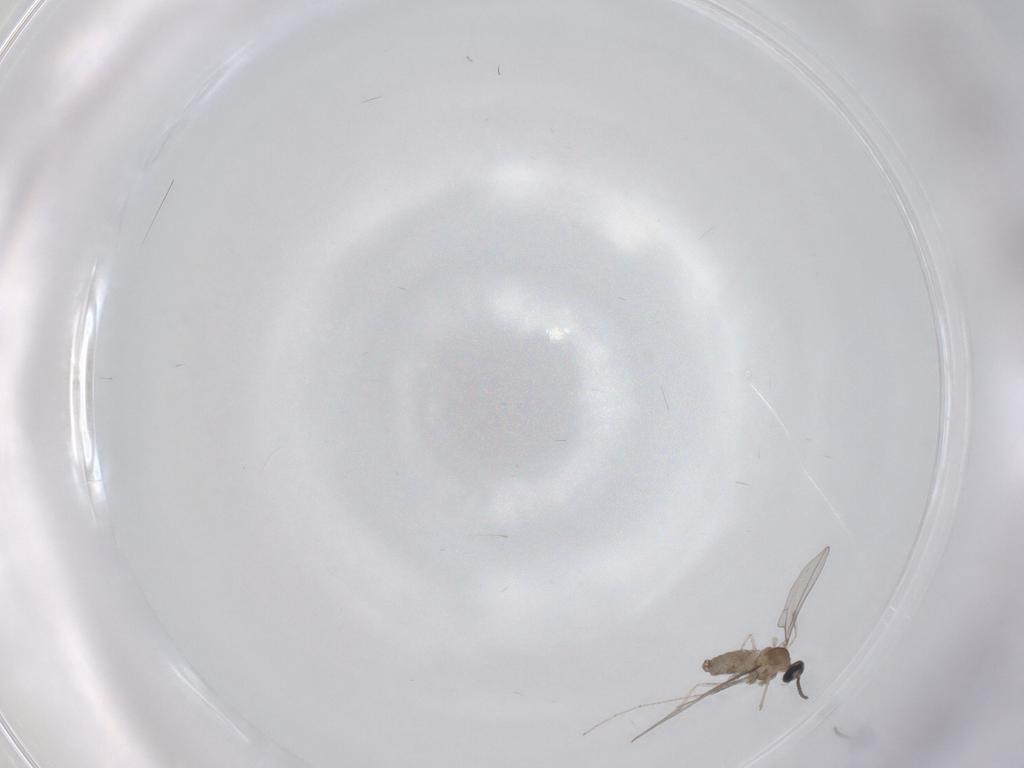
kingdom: Animalia
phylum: Arthropoda
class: Insecta
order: Diptera
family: Cecidomyiidae
